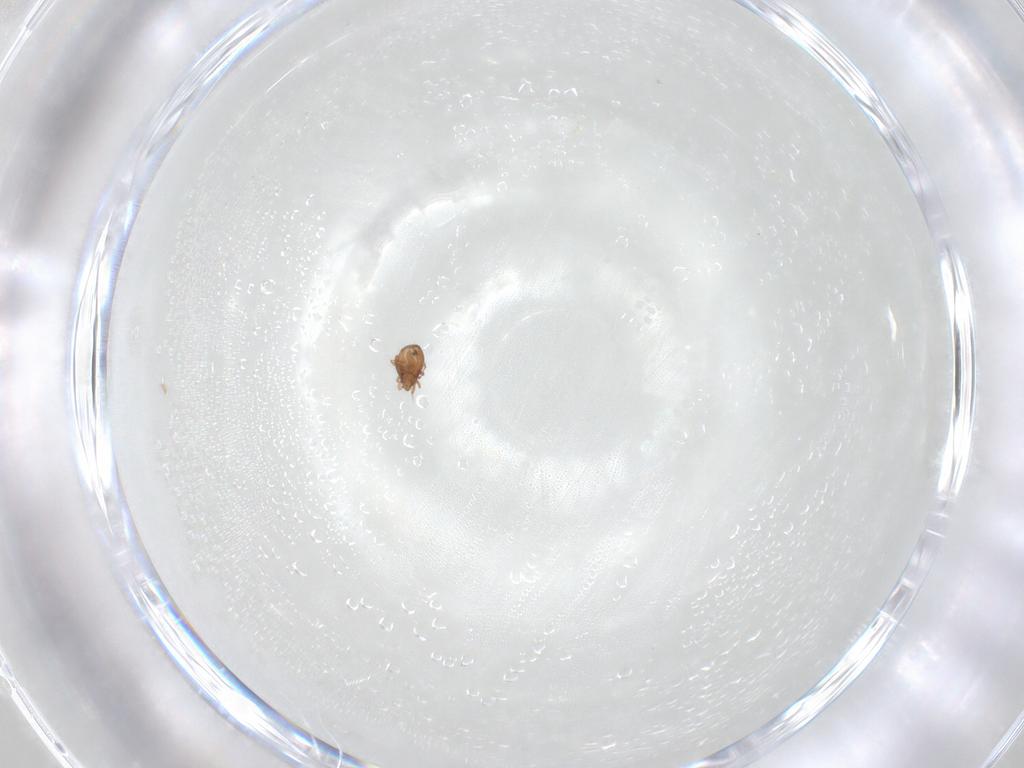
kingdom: Animalia
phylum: Arthropoda
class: Arachnida
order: Sarcoptiformes
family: Oribatulidae
